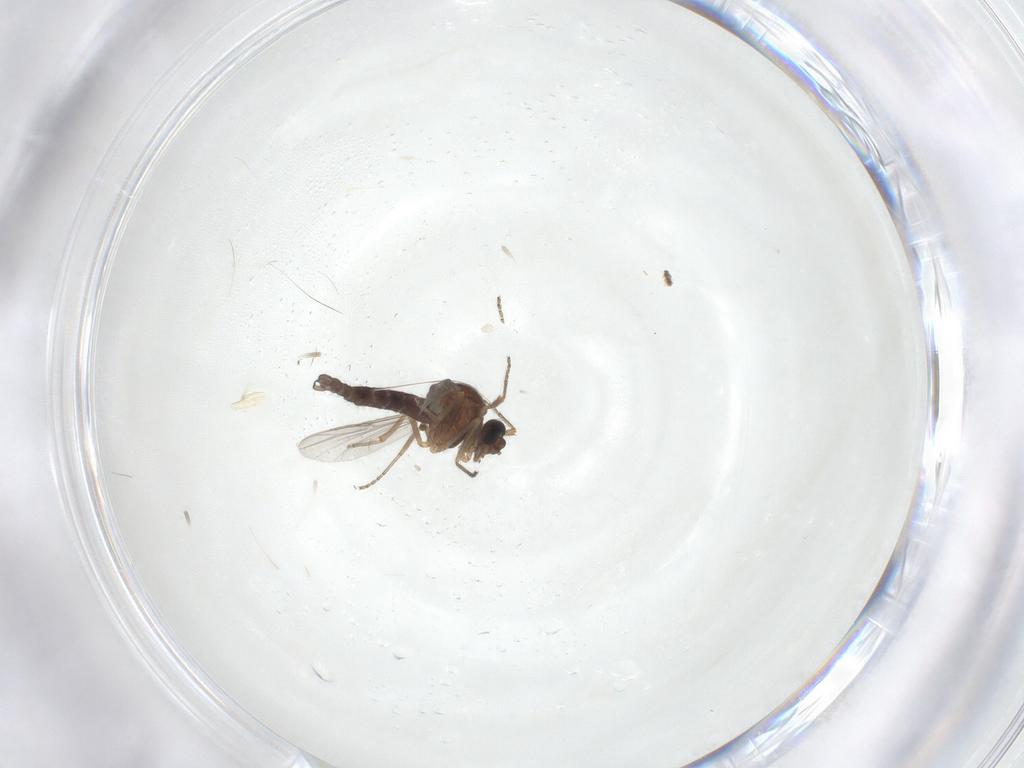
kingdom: Animalia
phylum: Arthropoda
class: Insecta
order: Diptera
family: Ceratopogonidae
